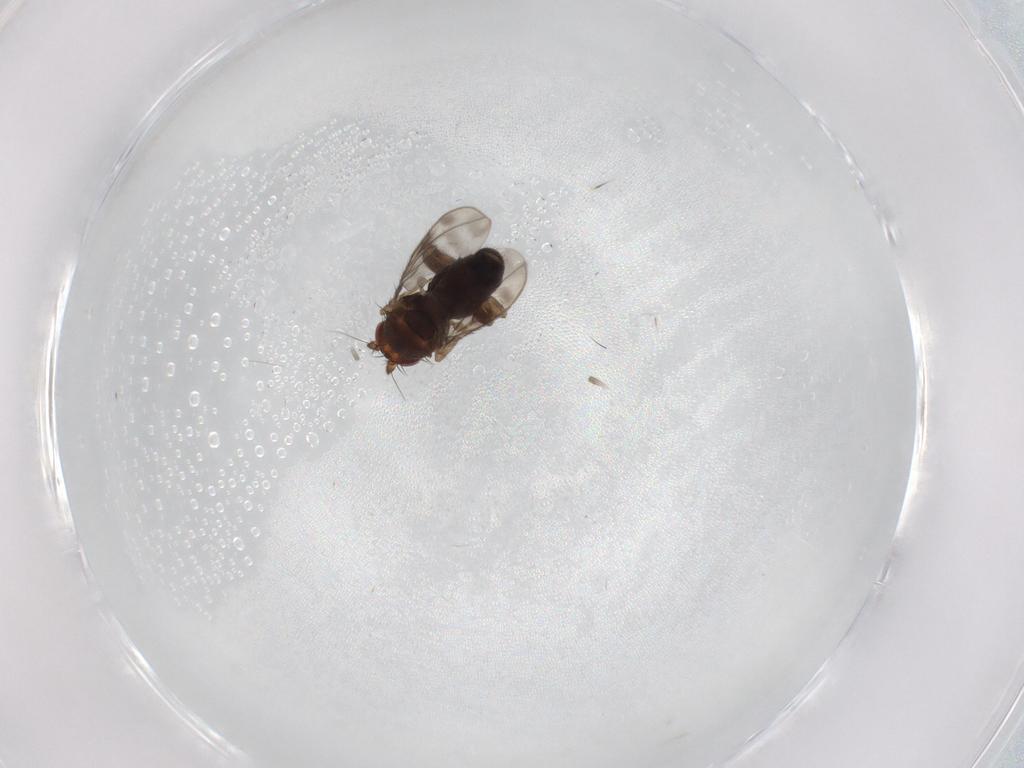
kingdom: Animalia
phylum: Arthropoda
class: Insecta
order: Diptera
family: Sphaeroceridae
